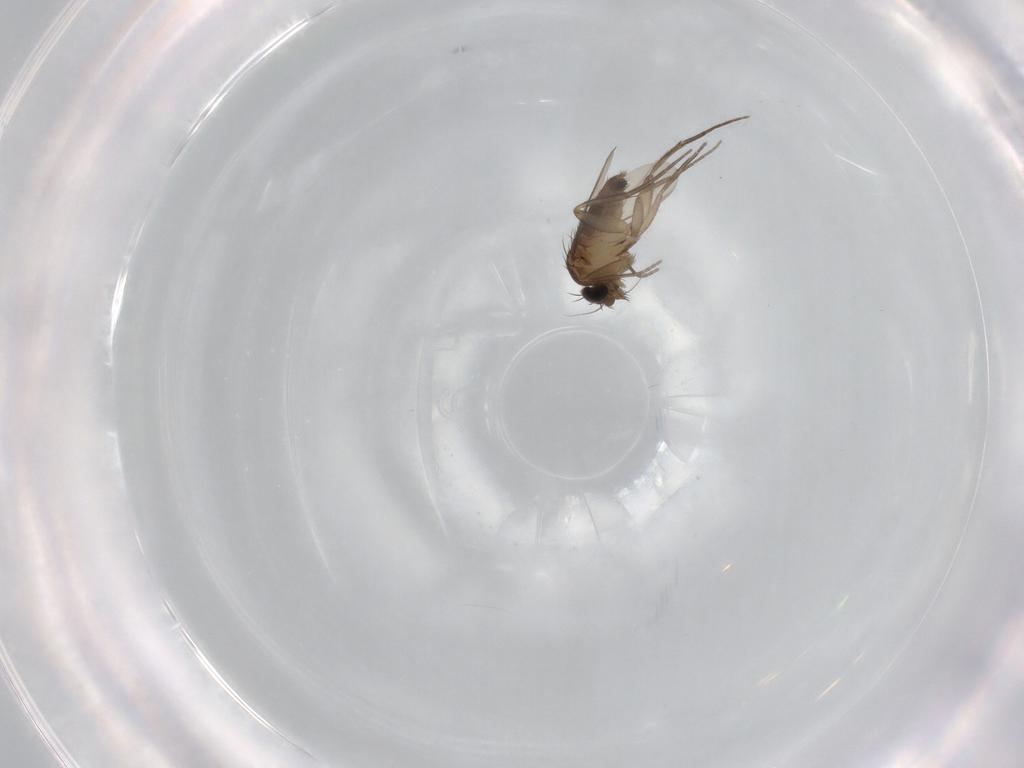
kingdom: Animalia
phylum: Arthropoda
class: Insecta
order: Diptera
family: Phoridae
